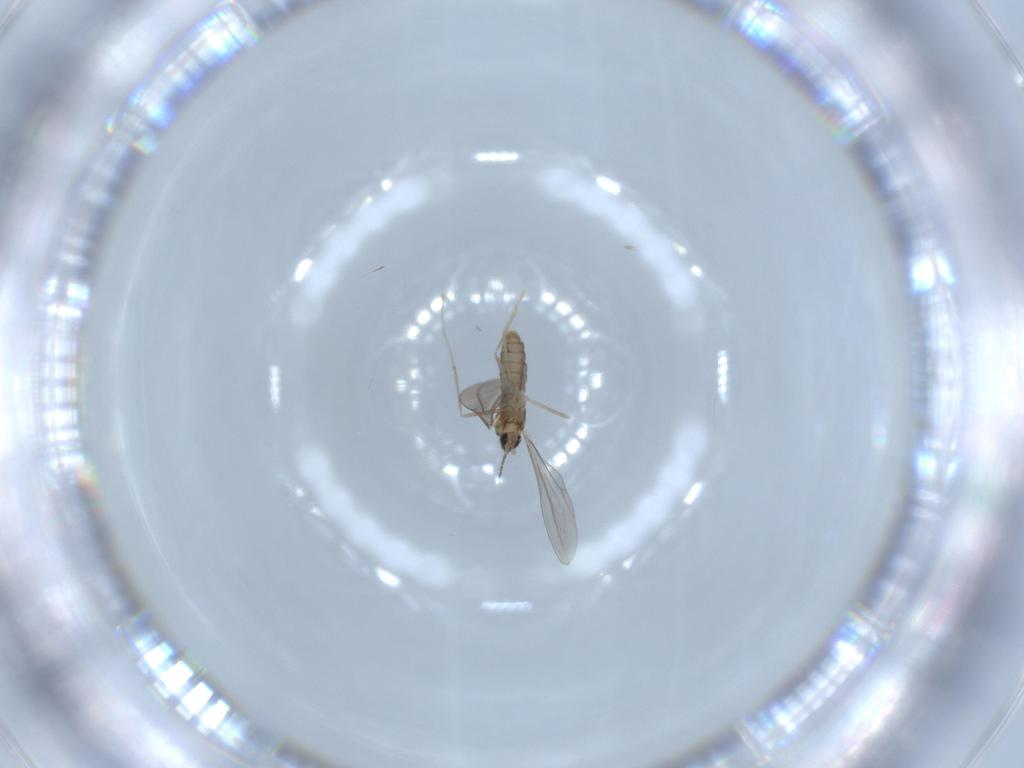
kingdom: Animalia
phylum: Arthropoda
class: Insecta
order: Diptera
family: Cecidomyiidae
